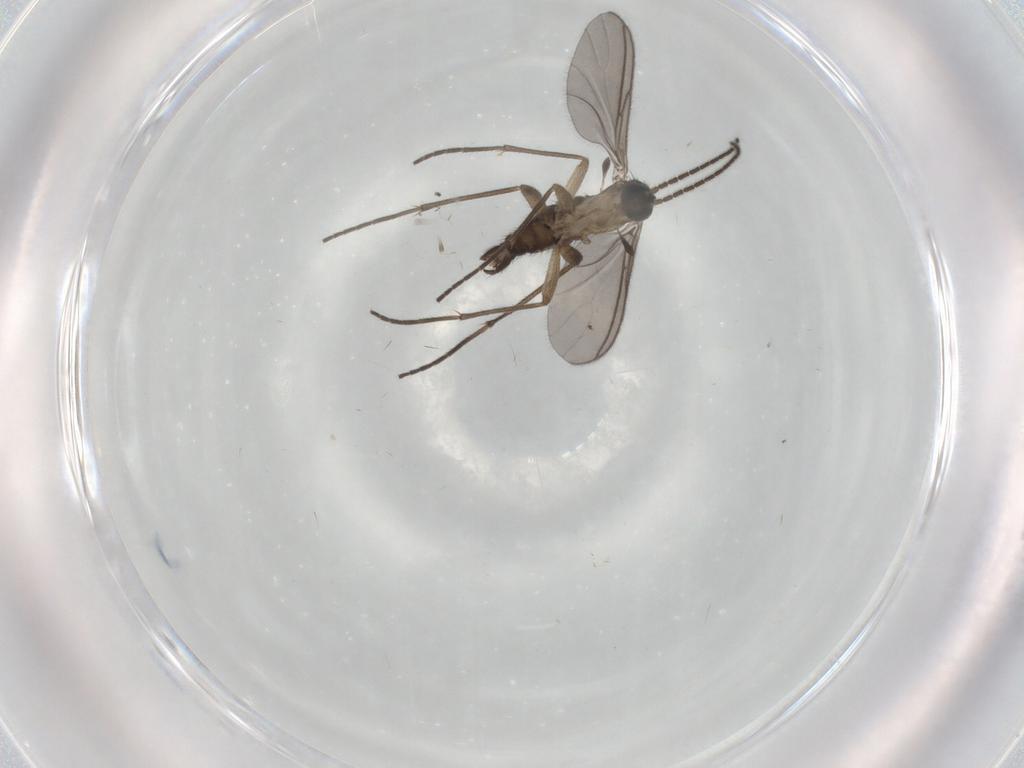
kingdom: Animalia
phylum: Arthropoda
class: Insecta
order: Diptera
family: Sciaridae
